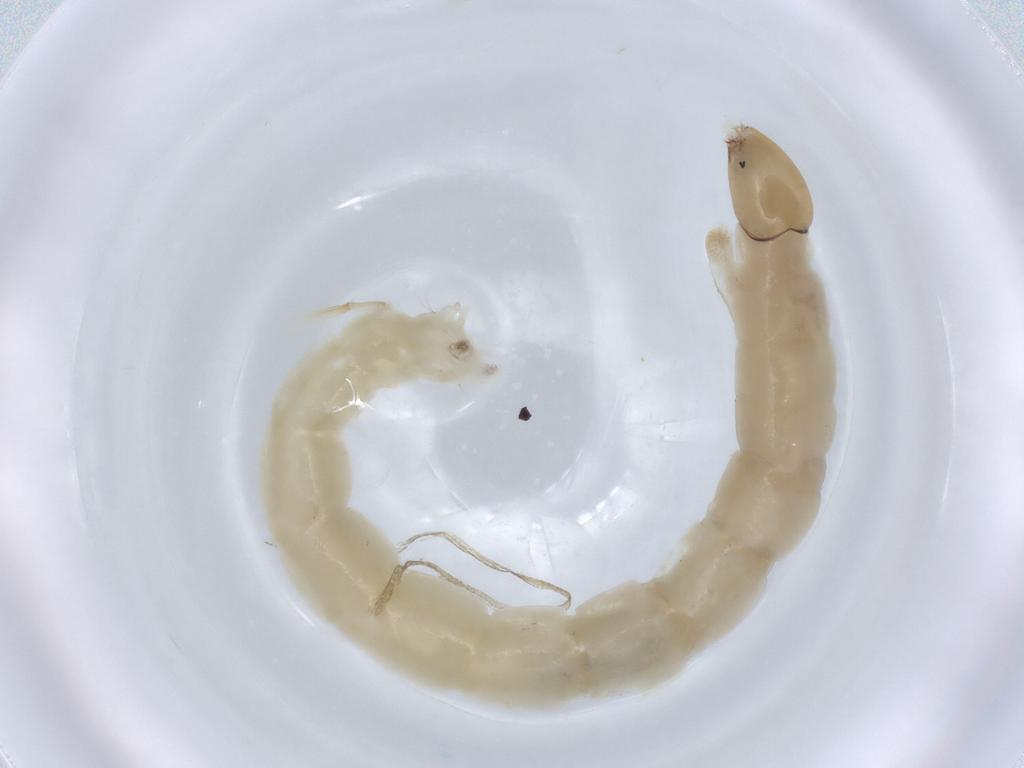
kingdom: Animalia
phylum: Arthropoda
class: Insecta
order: Diptera
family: Chironomidae
